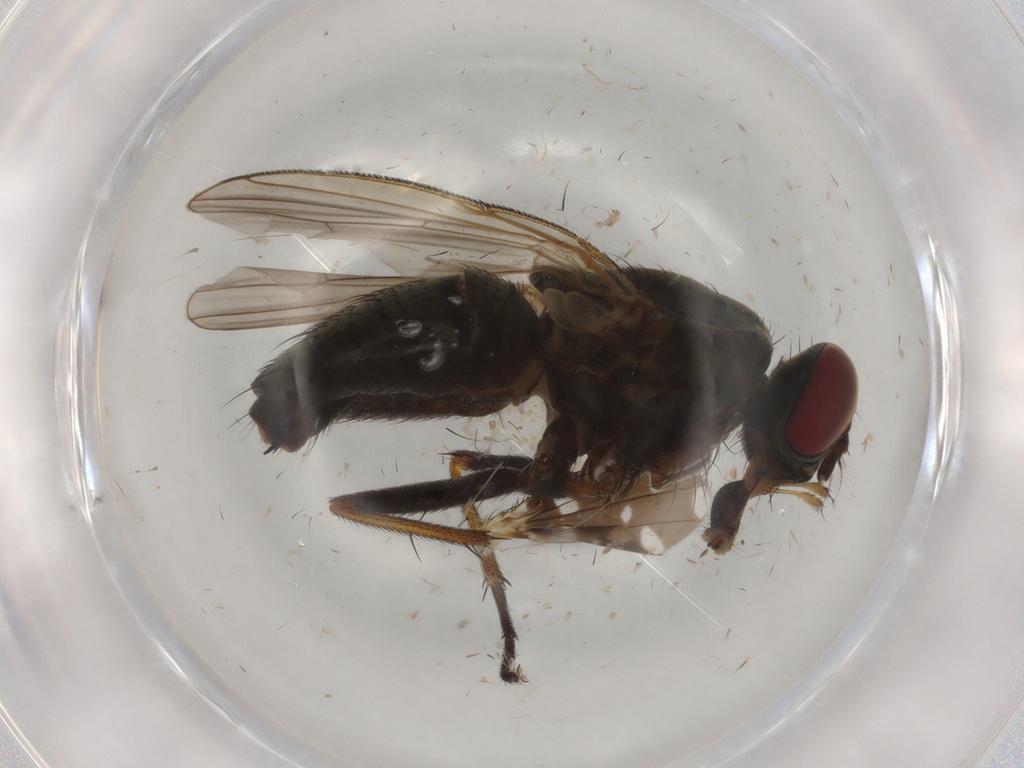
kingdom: Animalia
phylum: Arthropoda
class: Insecta
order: Diptera
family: Muscidae
